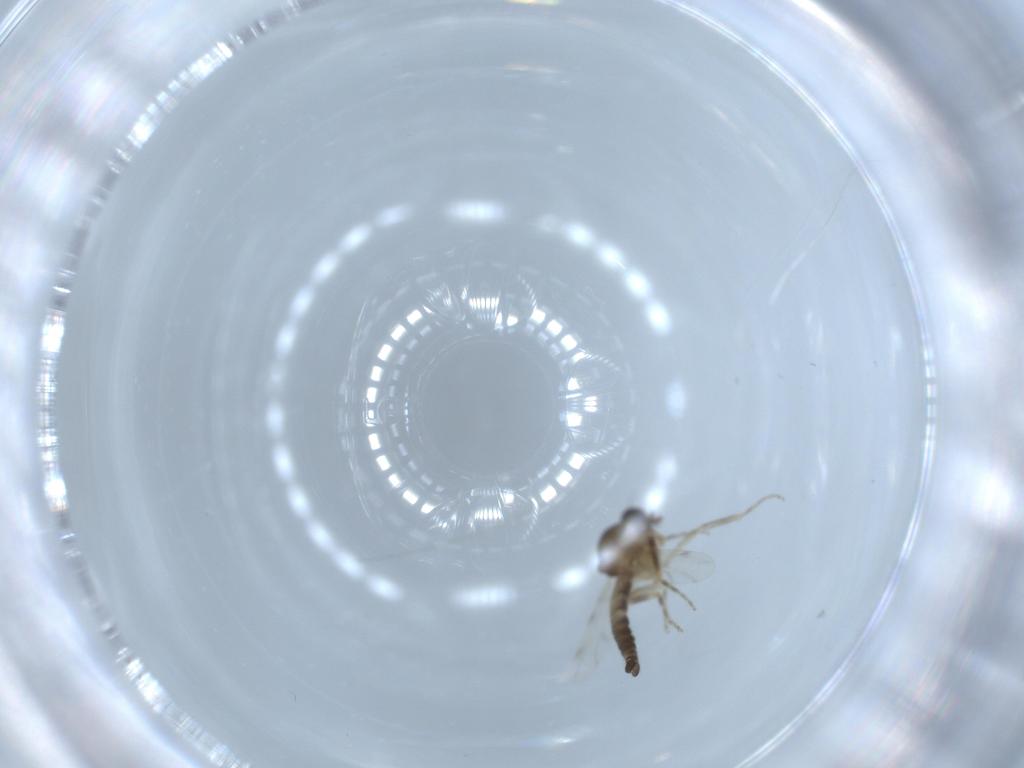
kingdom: Animalia
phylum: Arthropoda
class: Insecta
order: Diptera
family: Ceratopogonidae
